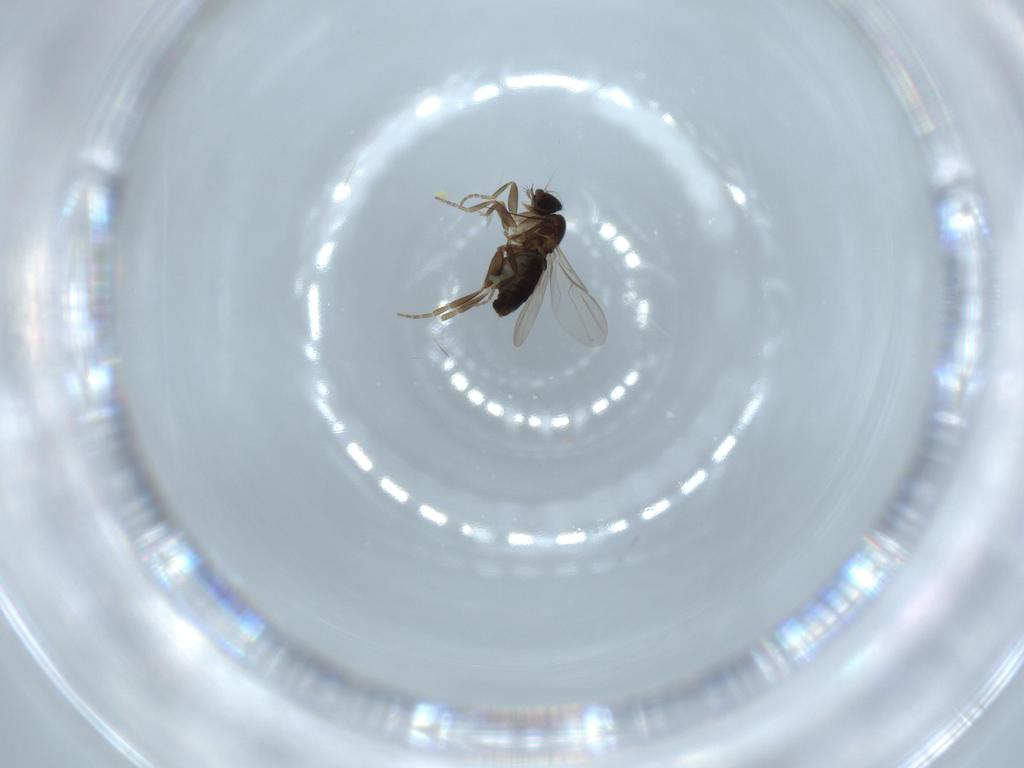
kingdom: Animalia
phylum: Arthropoda
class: Insecta
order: Diptera
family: Phoridae
